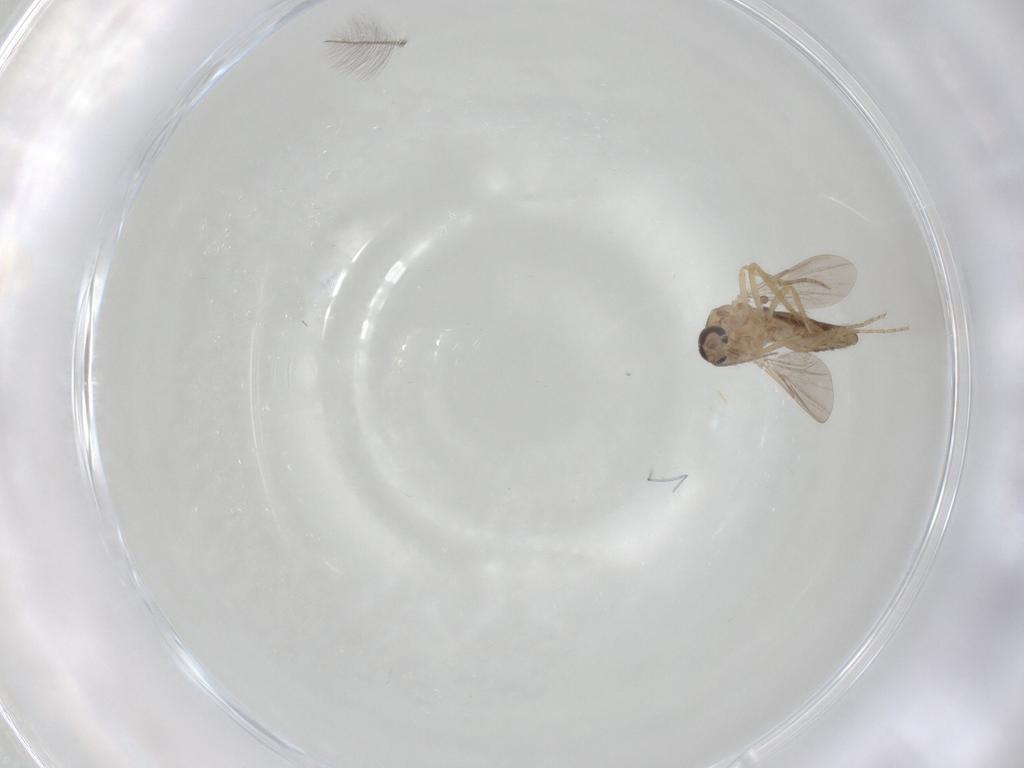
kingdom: Animalia
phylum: Arthropoda
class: Insecta
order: Diptera
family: Ceratopogonidae
